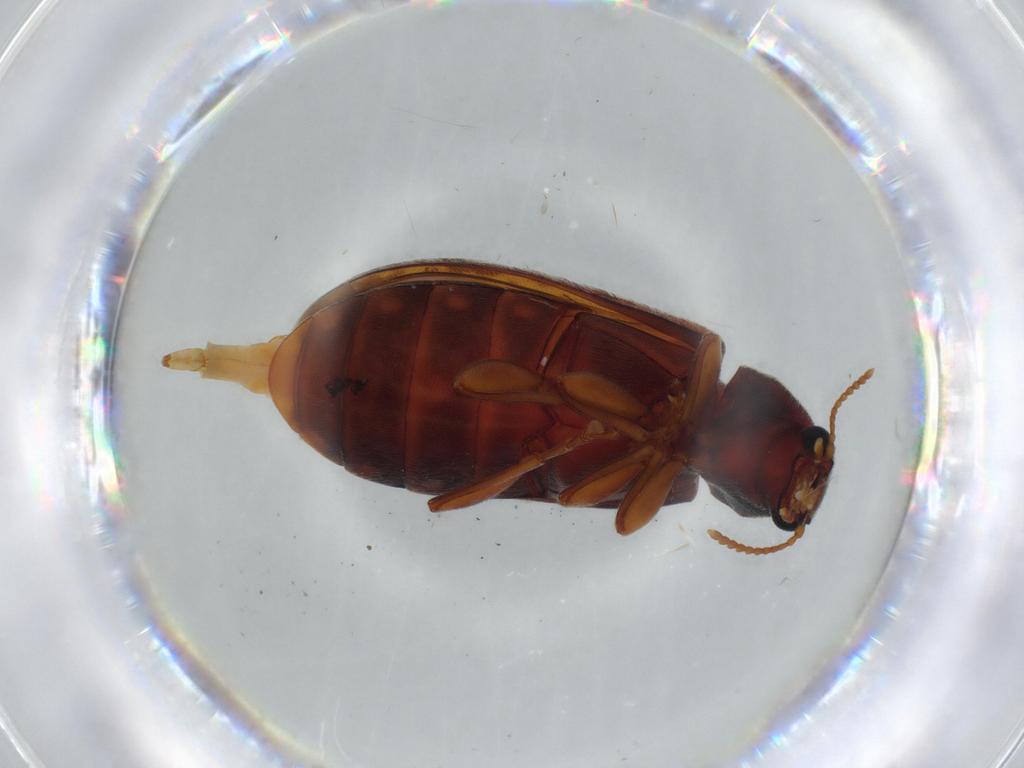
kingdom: Animalia
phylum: Arthropoda
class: Insecta
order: Coleoptera
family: Mycteridae
